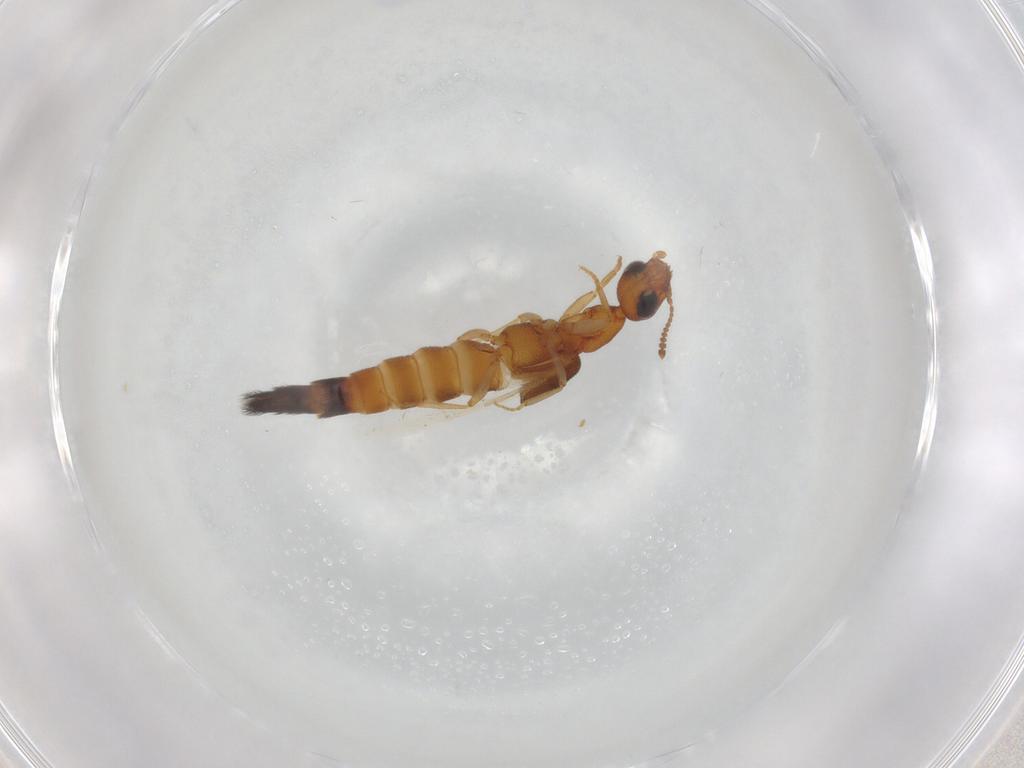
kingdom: Animalia
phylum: Arthropoda
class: Insecta
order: Coleoptera
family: Staphylinidae
